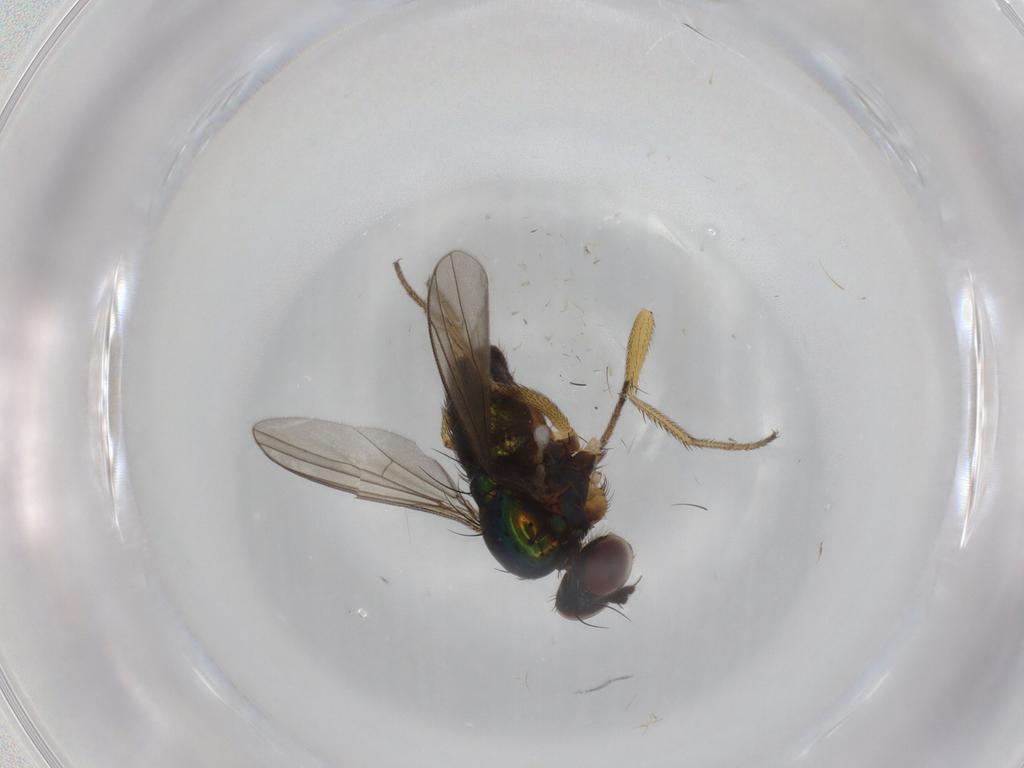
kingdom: Animalia
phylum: Arthropoda
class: Insecta
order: Diptera
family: Dolichopodidae
